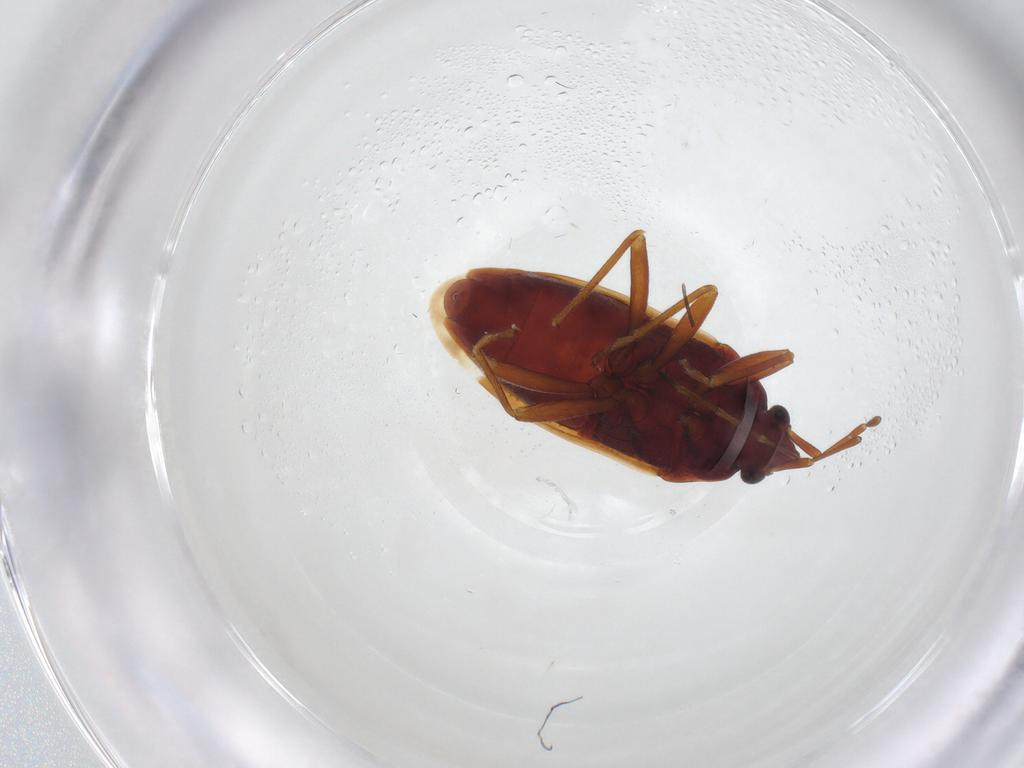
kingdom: Animalia
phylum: Arthropoda
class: Insecta
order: Hemiptera
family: Rhyparochromidae
